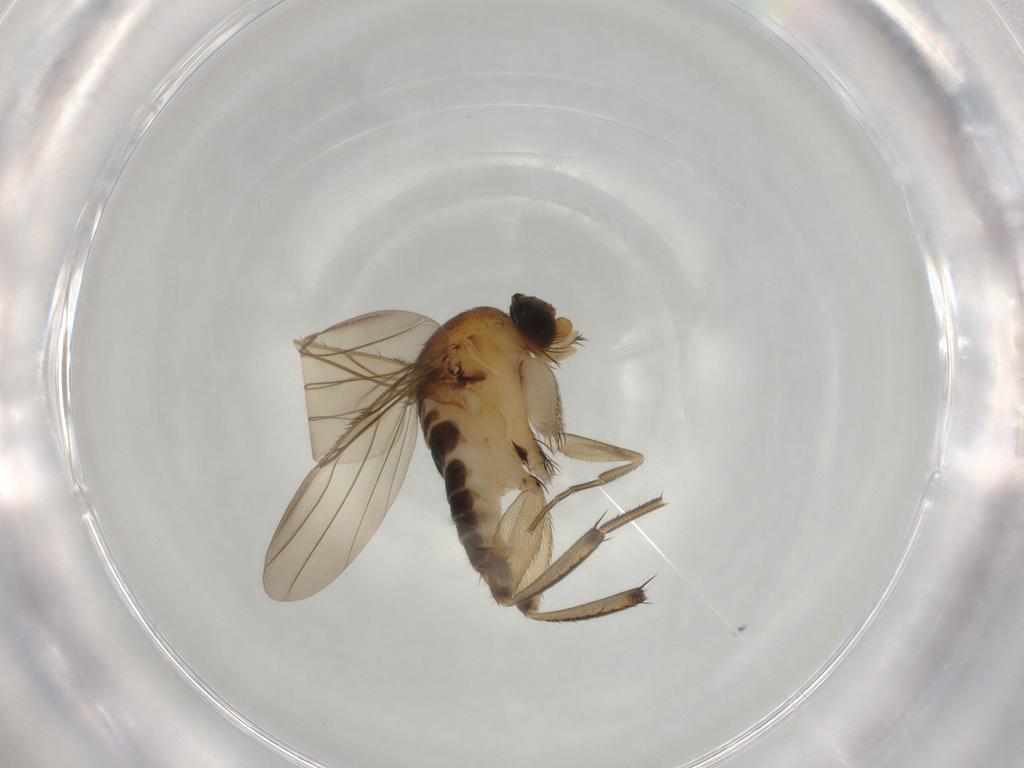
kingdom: Animalia
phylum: Arthropoda
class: Insecta
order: Diptera
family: Phoridae
